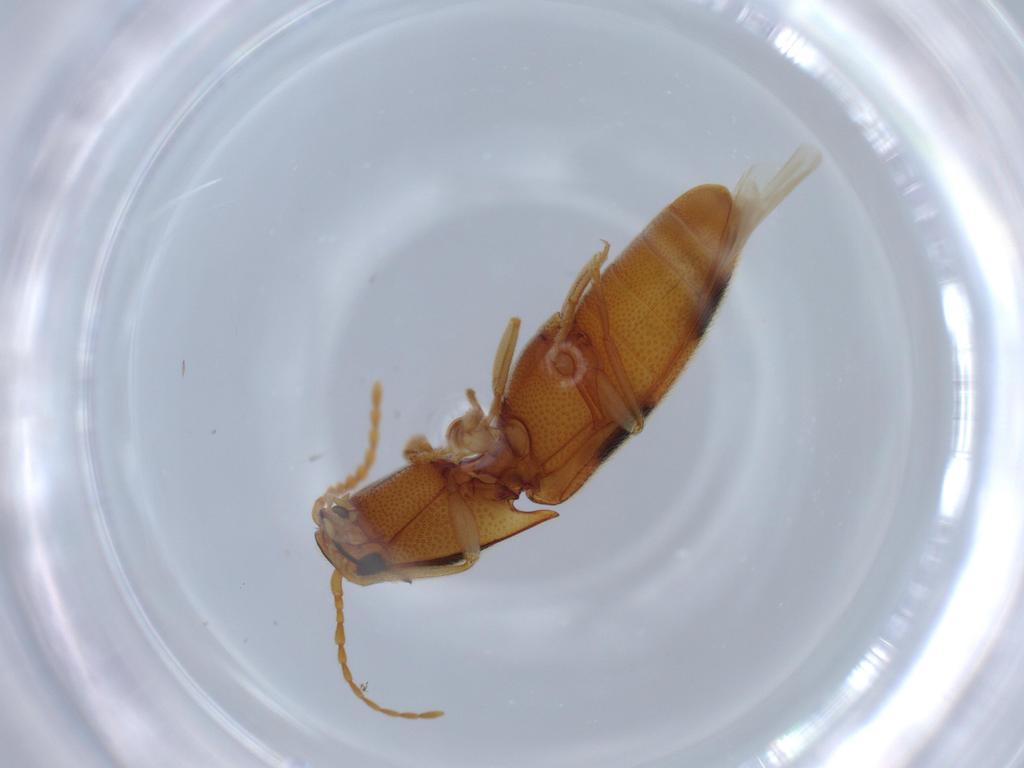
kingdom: Animalia
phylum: Arthropoda
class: Insecta
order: Coleoptera
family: Elateridae
